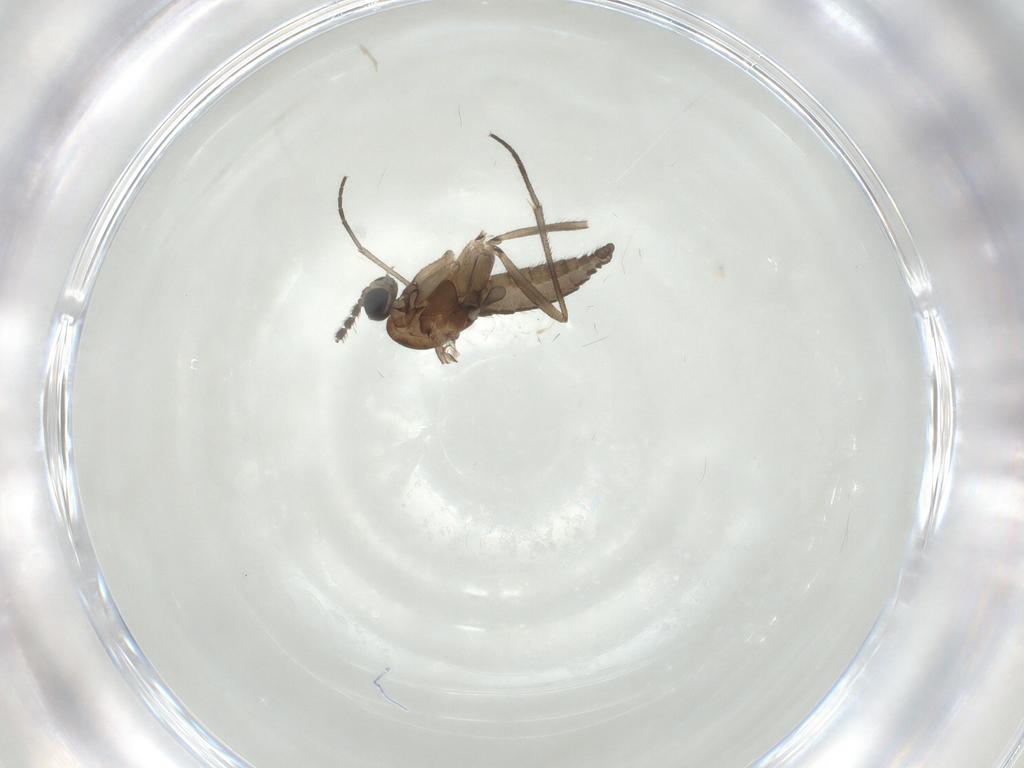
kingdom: Animalia
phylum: Arthropoda
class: Insecta
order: Diptera
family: Sciaridae
